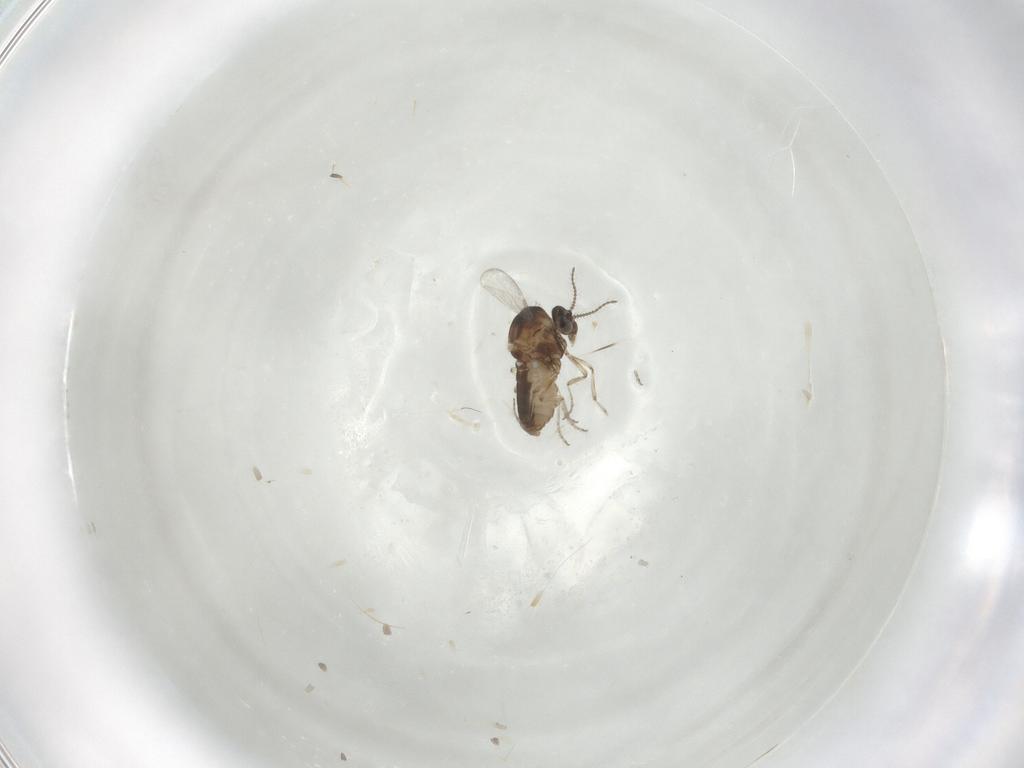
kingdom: Animalia
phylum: Arthropoda
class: Insecta
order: Diptera
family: Ceratopogonidae
